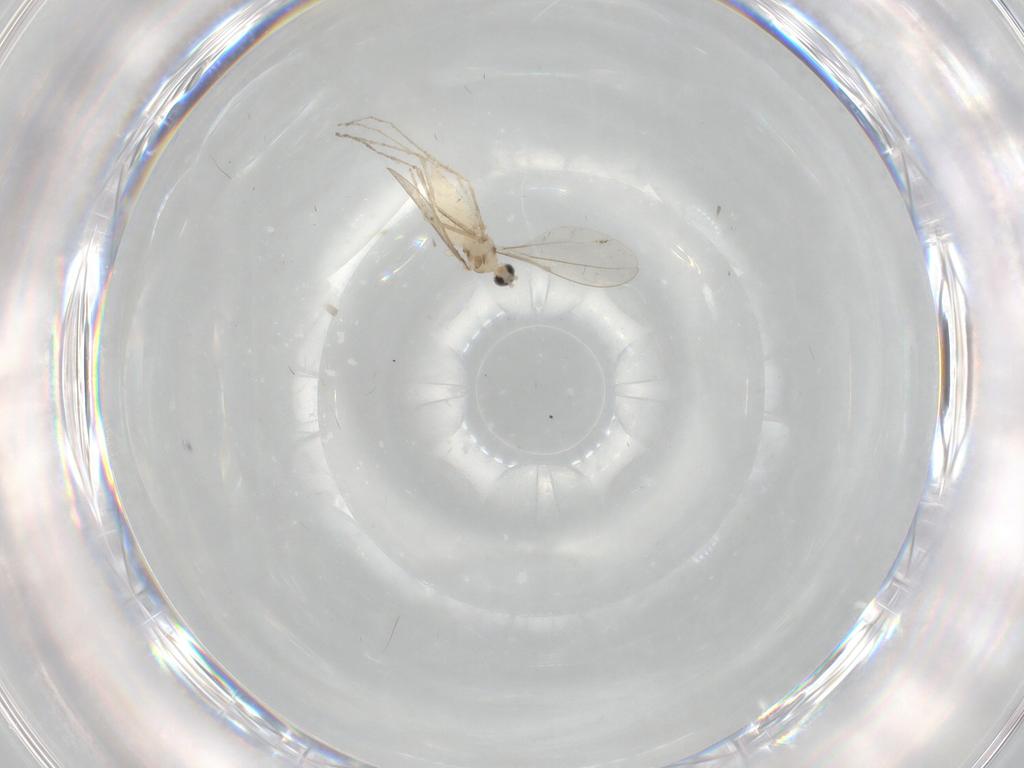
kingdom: Animalia
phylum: Arthropoda
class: Insecta
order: Diptera
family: Cecidomyiidae
